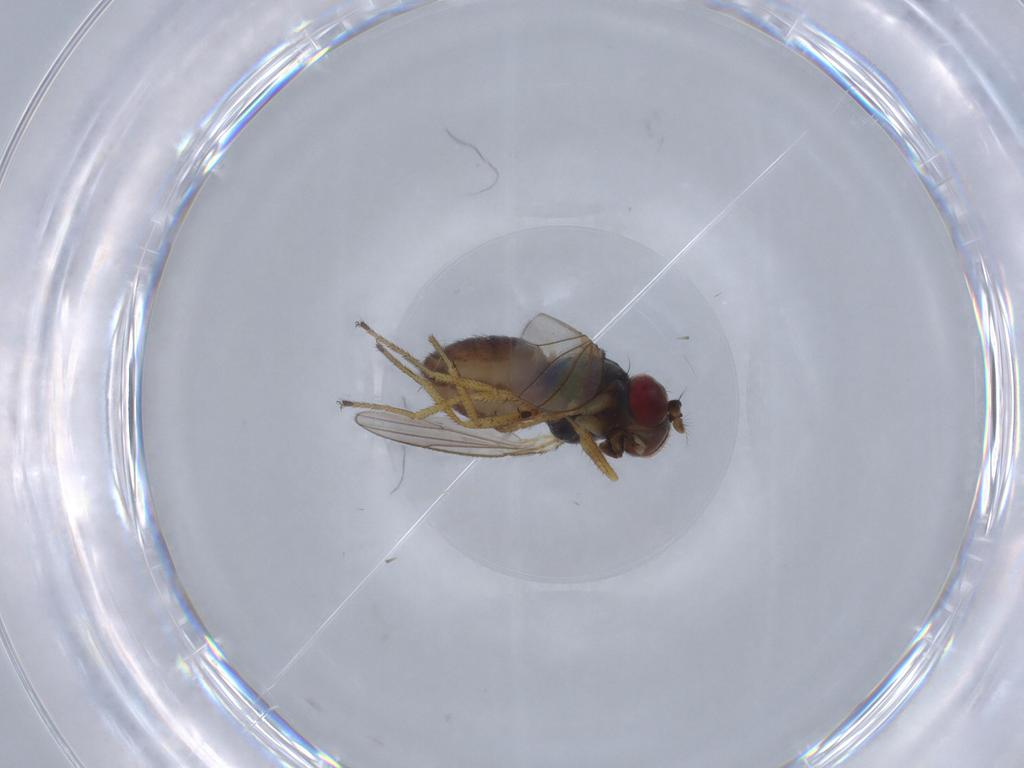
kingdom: Animalia
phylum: Arthropoda
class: Insecta
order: Diptera
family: Ephydridae
